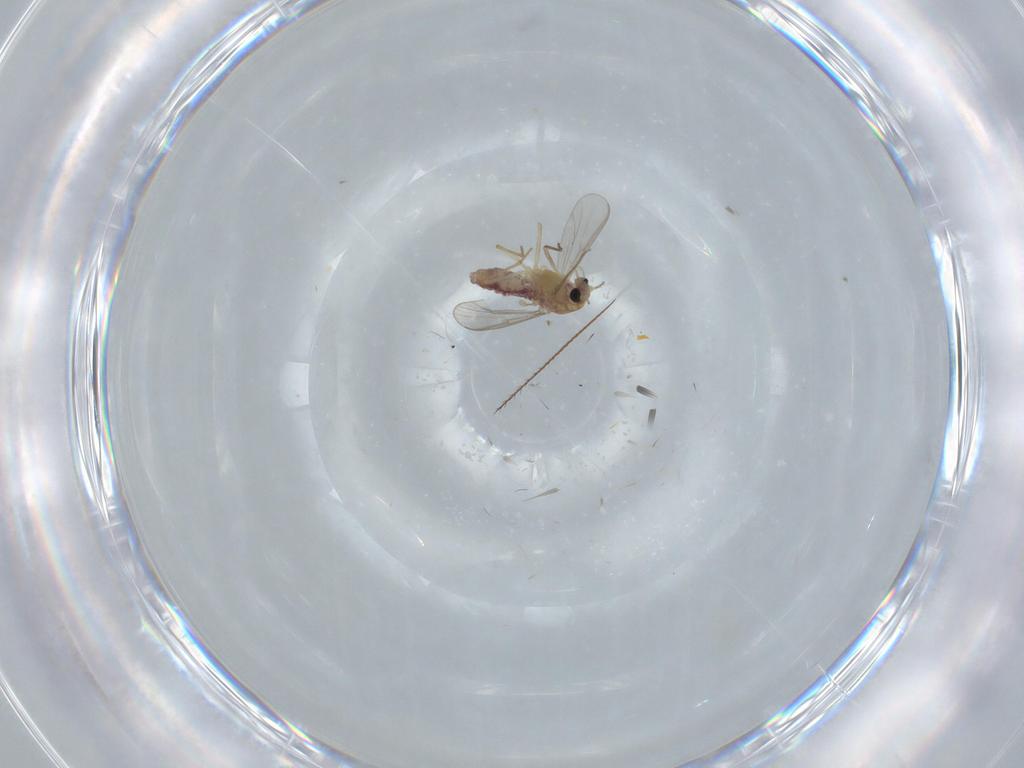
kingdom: Animalia
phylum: Arthropoda
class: Insecta
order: Diptera
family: Chironomidae
